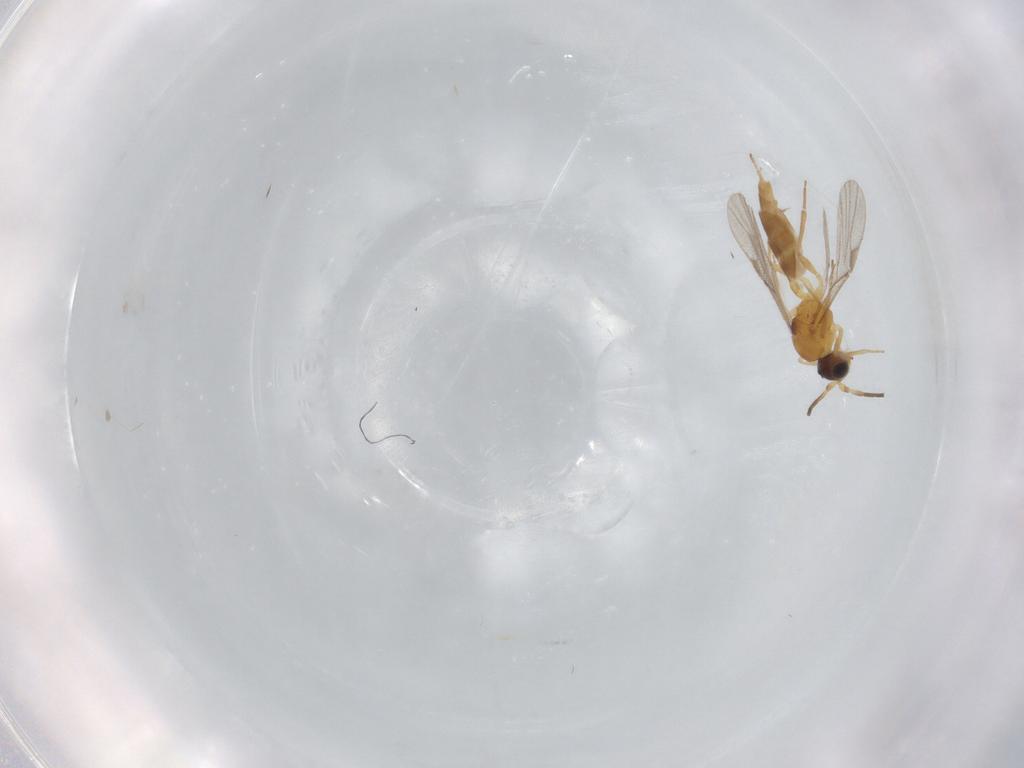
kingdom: Animalia
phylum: Arthropoda
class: Insecta
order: Hymenoptera
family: Braconidae
